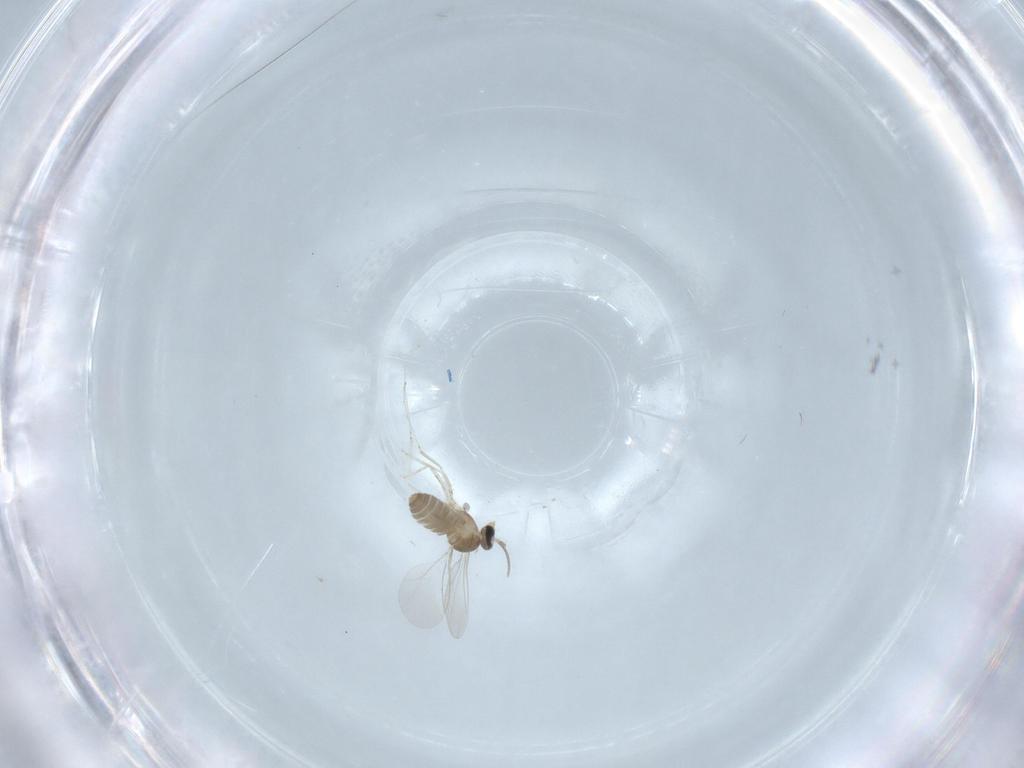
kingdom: Animalia
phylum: Arthropoda
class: Insecta
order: Diptera
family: Cecidomyiidae
